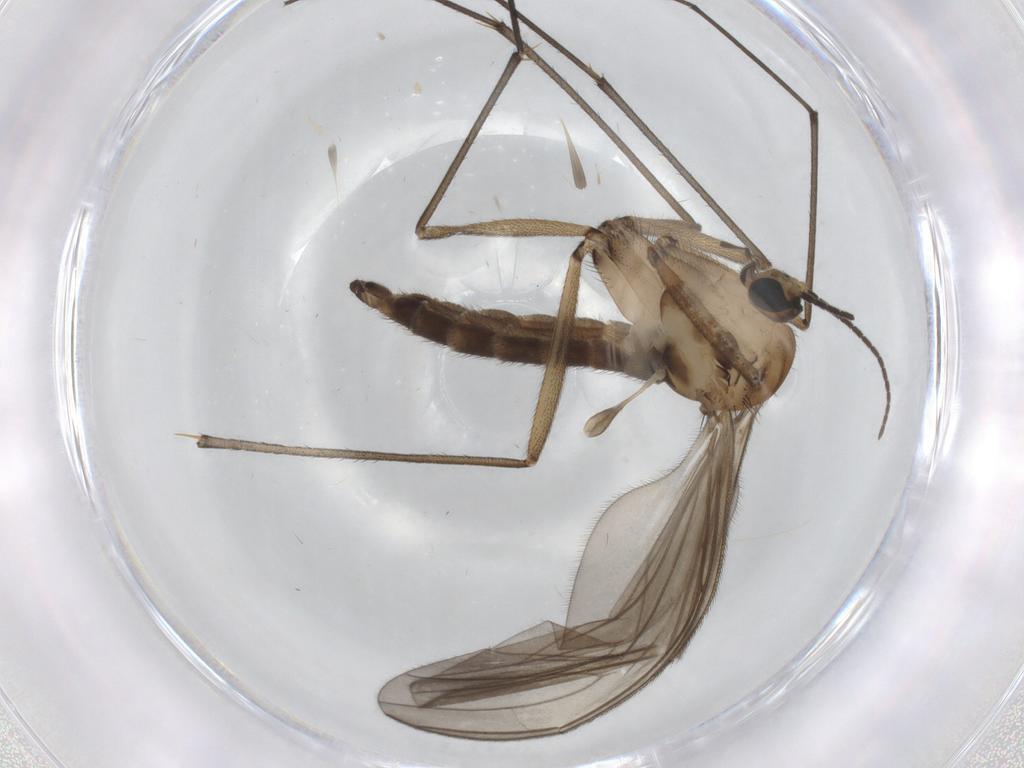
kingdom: Animalia
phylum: Arthropoda
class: Insecta
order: Diptera
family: Sciaridae
